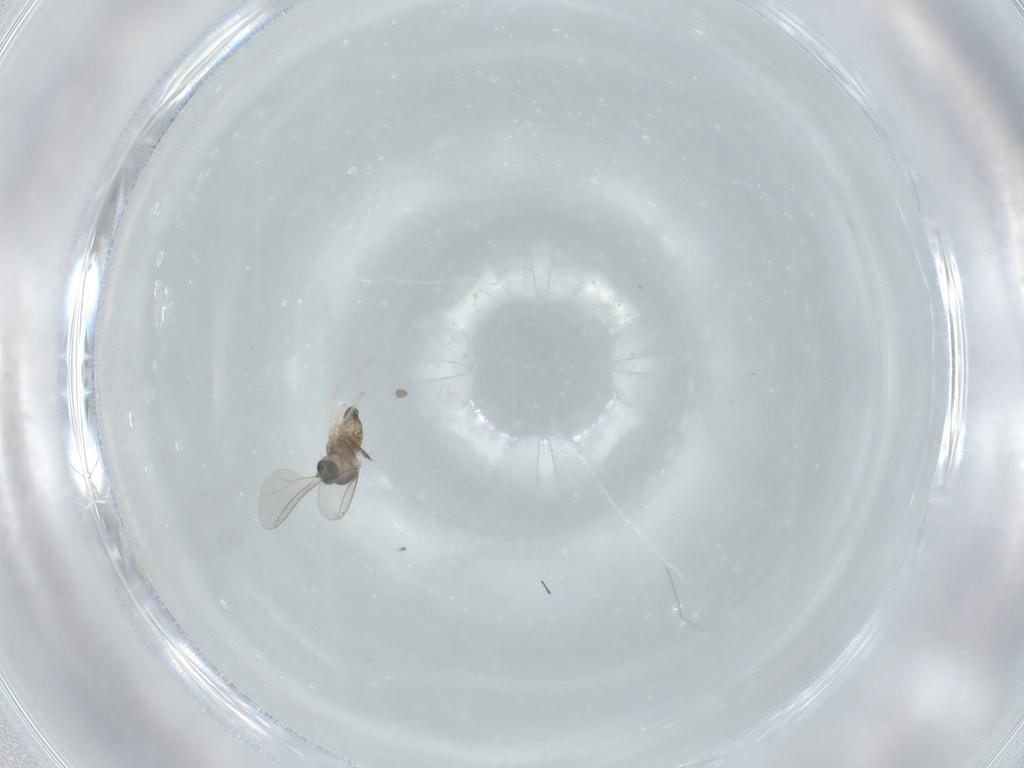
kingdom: Animalia
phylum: Arthropoda
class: Insecta
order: Diptera
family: Cecidomyiidae
